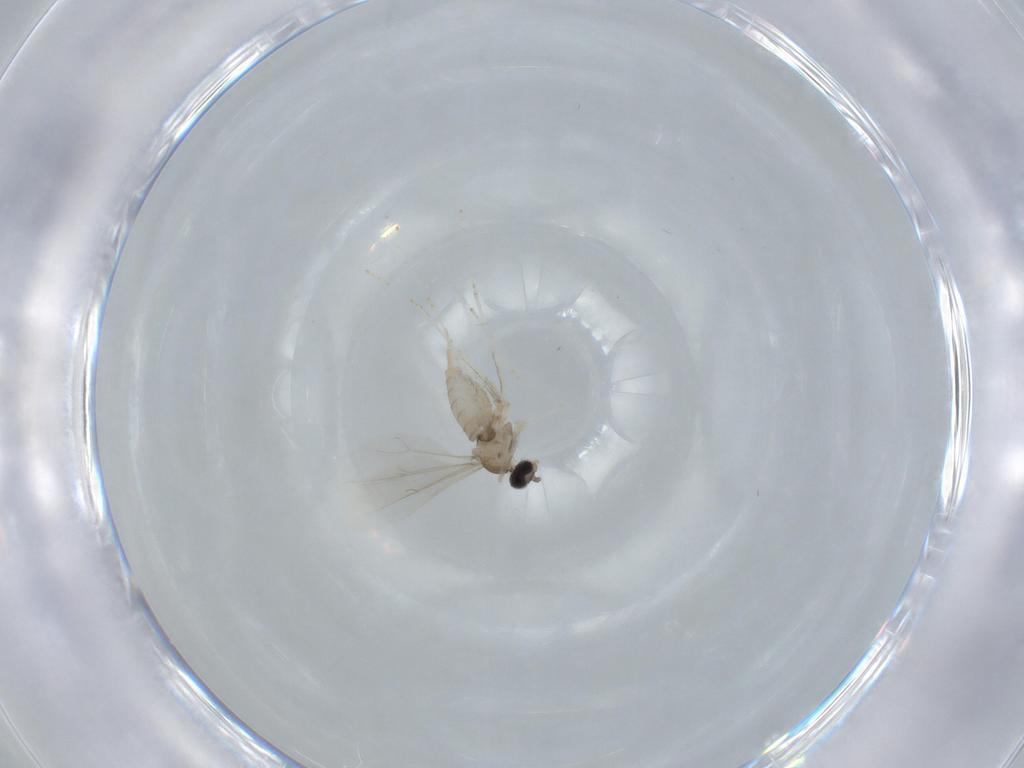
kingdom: Animalia
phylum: Arthropoda
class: Insecta
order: Diptera
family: Cecidomyiidae
